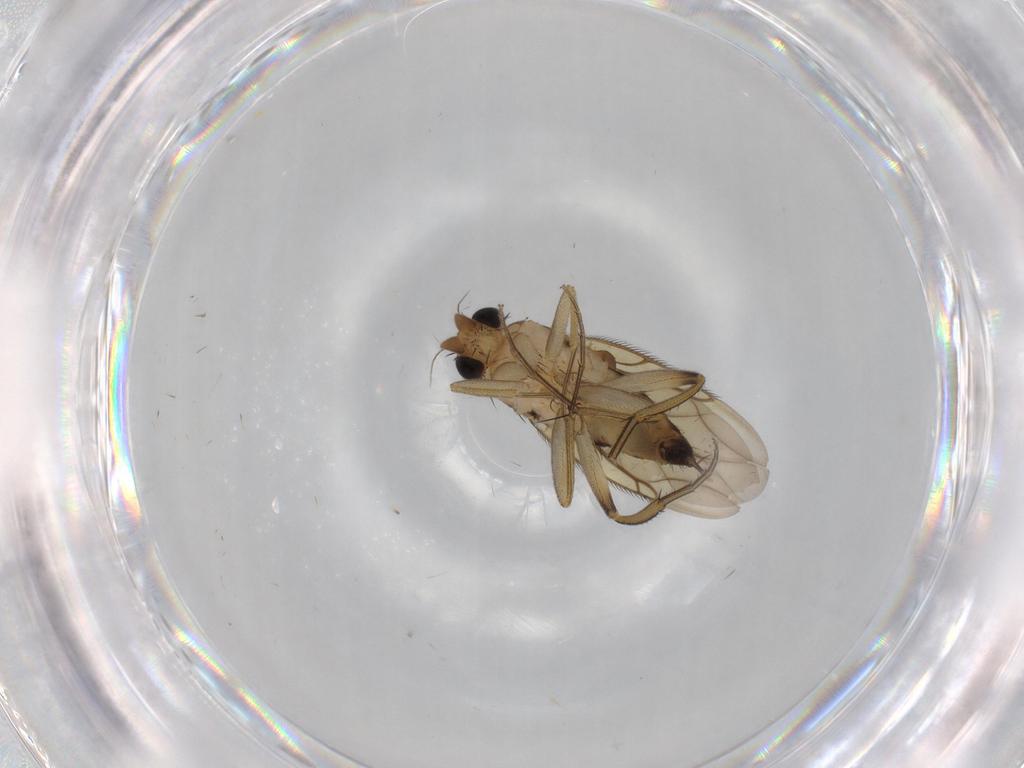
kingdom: Animalia
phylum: Arthropoda
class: Insecta
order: Diptera
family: Phoridae
